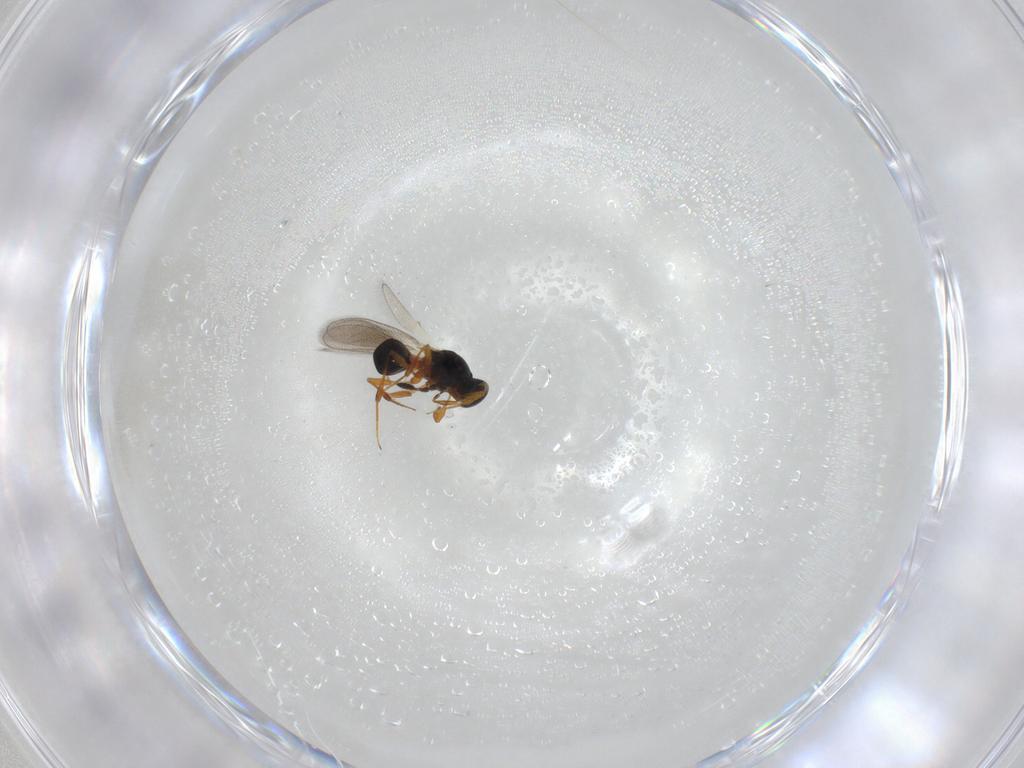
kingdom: Animalia
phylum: Arthropoda
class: Insecta
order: Hymenoptera
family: Platygastridae
